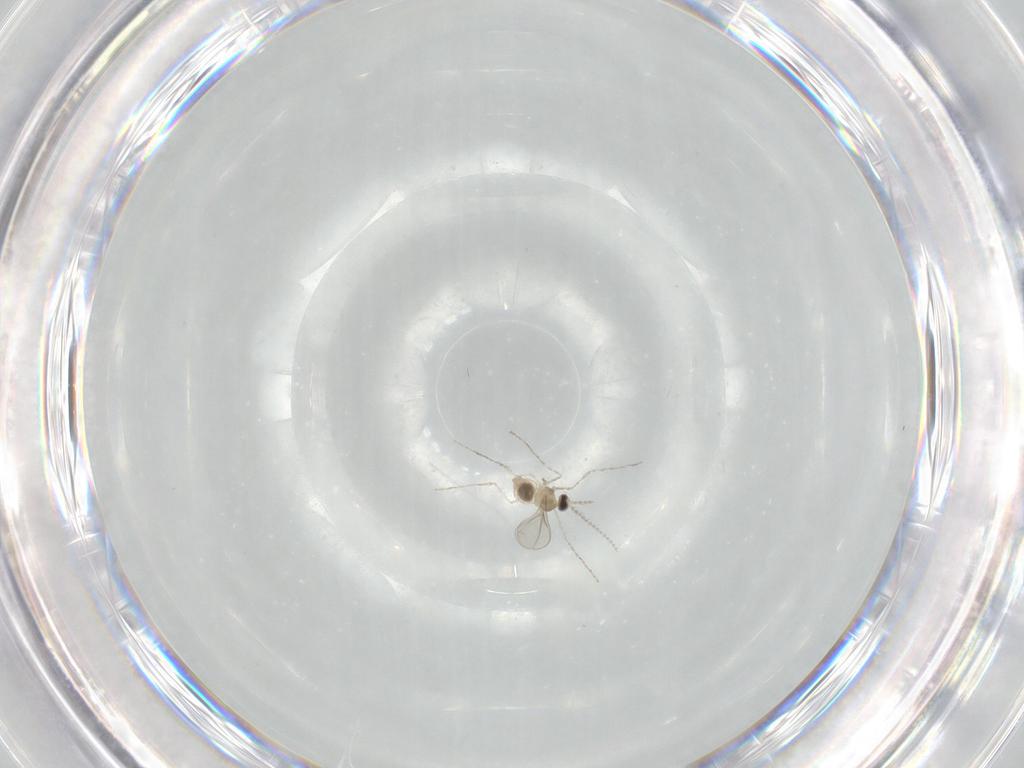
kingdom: Animalia
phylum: Arthropoda
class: Insecta
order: Diptera
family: Cecidomyiidae
